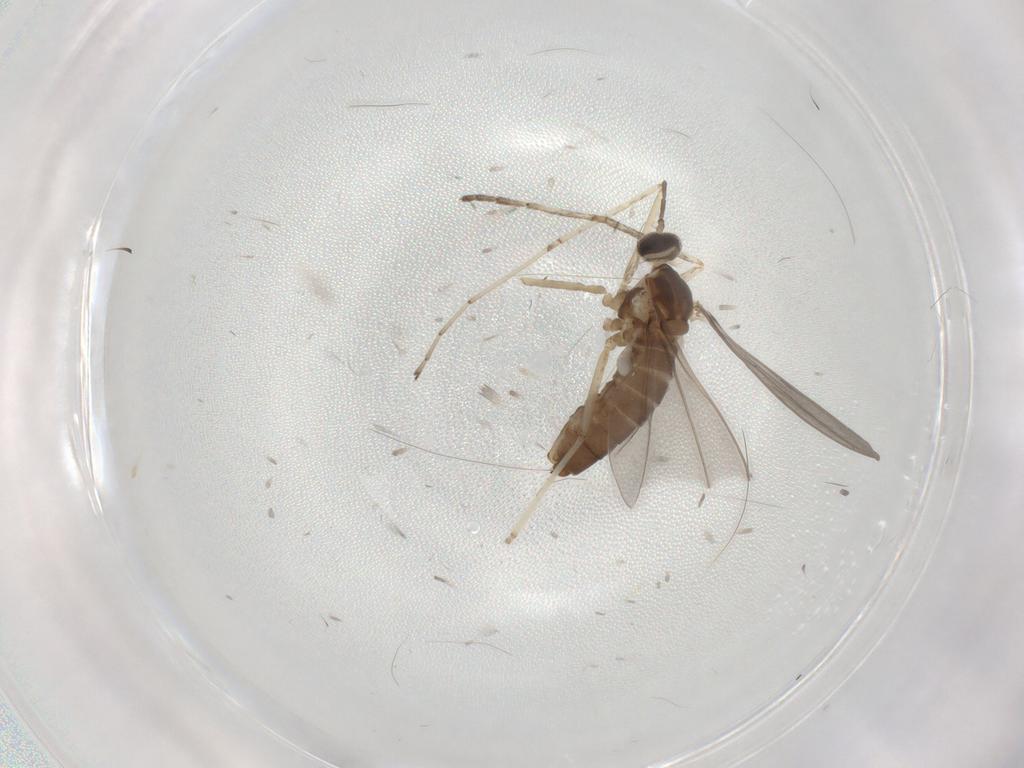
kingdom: Animalia
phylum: Arthropoda
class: Insecta
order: Diptera
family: Cecidomyiidae
